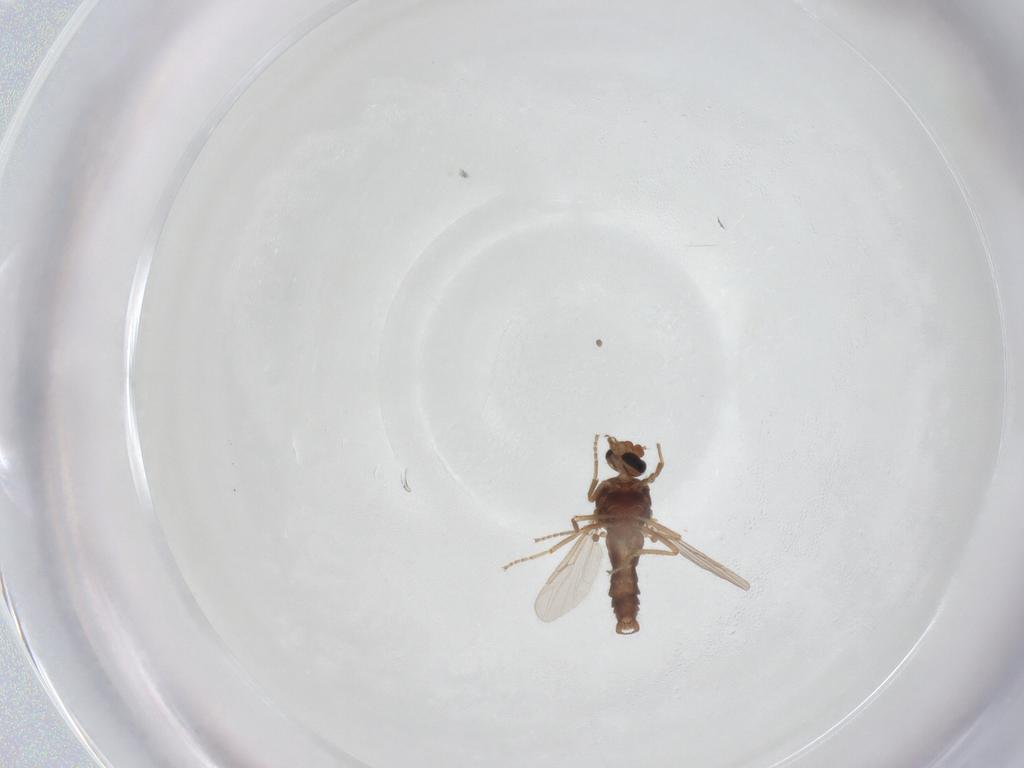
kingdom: Animalia
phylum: Arthropoda
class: Insecta
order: Diptera
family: Ceratopogonidae
